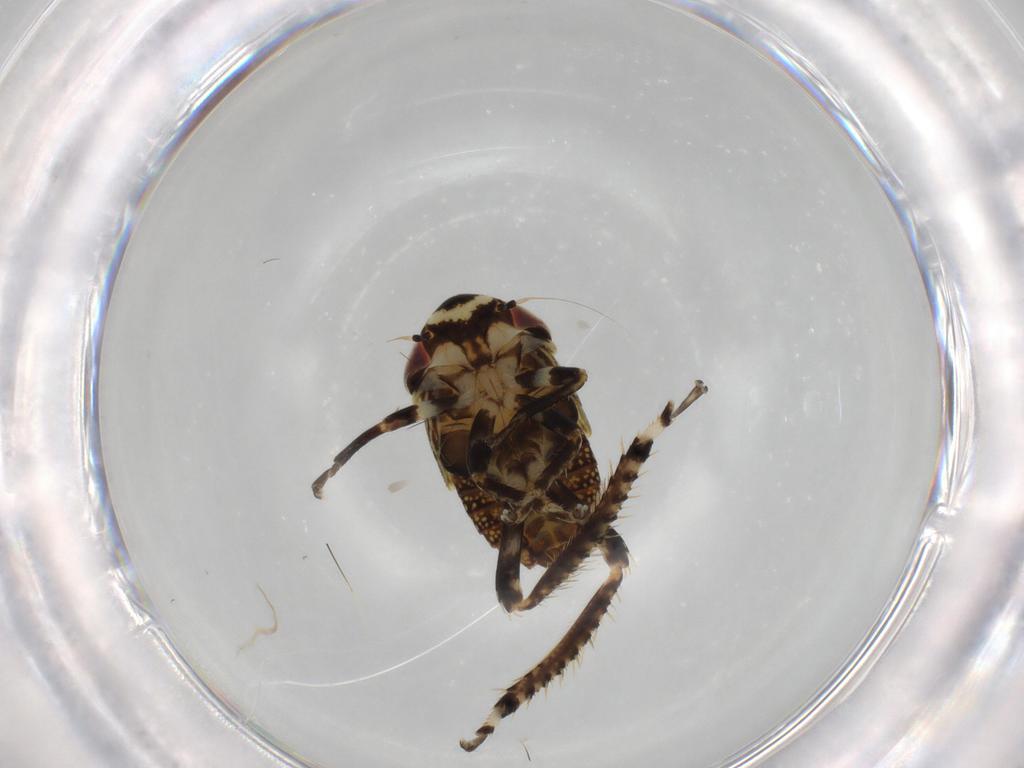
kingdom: Animalia
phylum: Arthropoda
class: Insecta
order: Hemiptera
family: Cicadellidae
